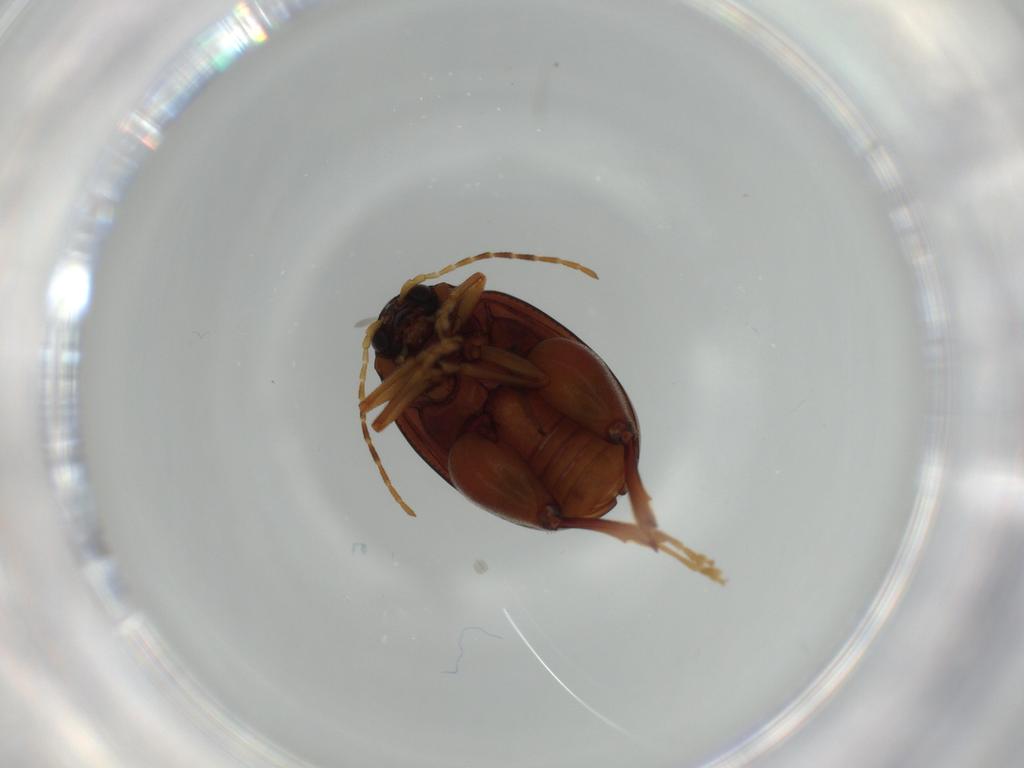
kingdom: Animalia
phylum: Arthropoda
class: Insecta
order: Coleoptera
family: Chrysomelidae
